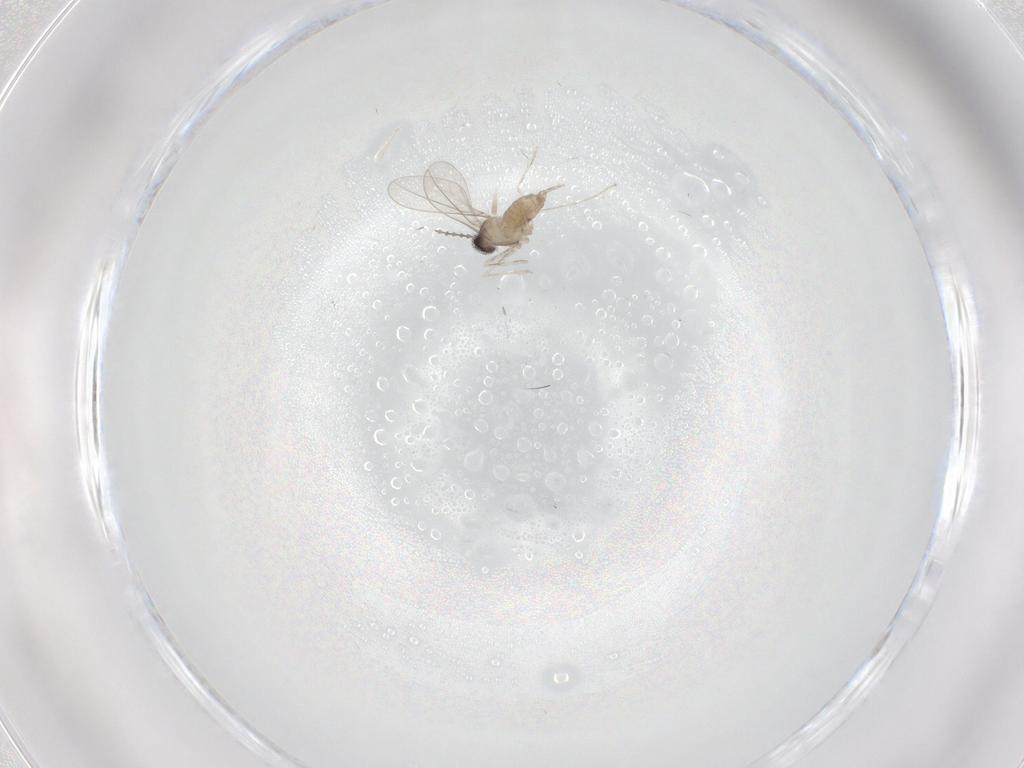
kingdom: Animalia
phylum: Arthropoda
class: Insecta
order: Diptera
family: Cecidomyiidae
